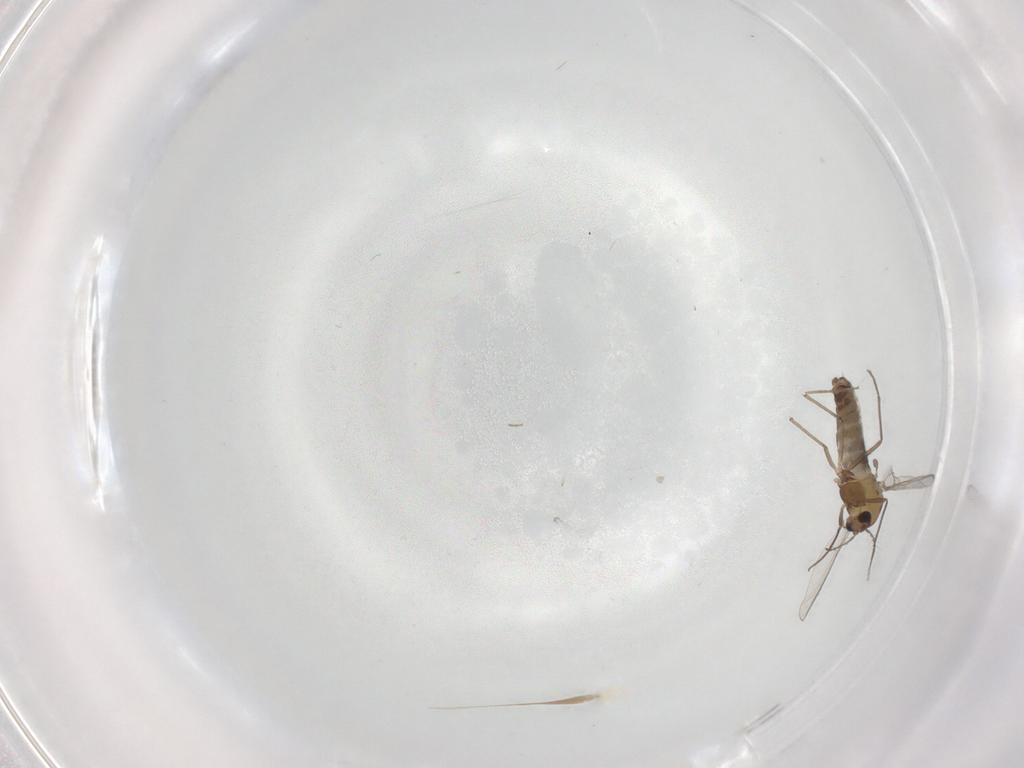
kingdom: Animalia
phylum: Arthropoda
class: Insecta
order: Diptera
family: Chironomidae
